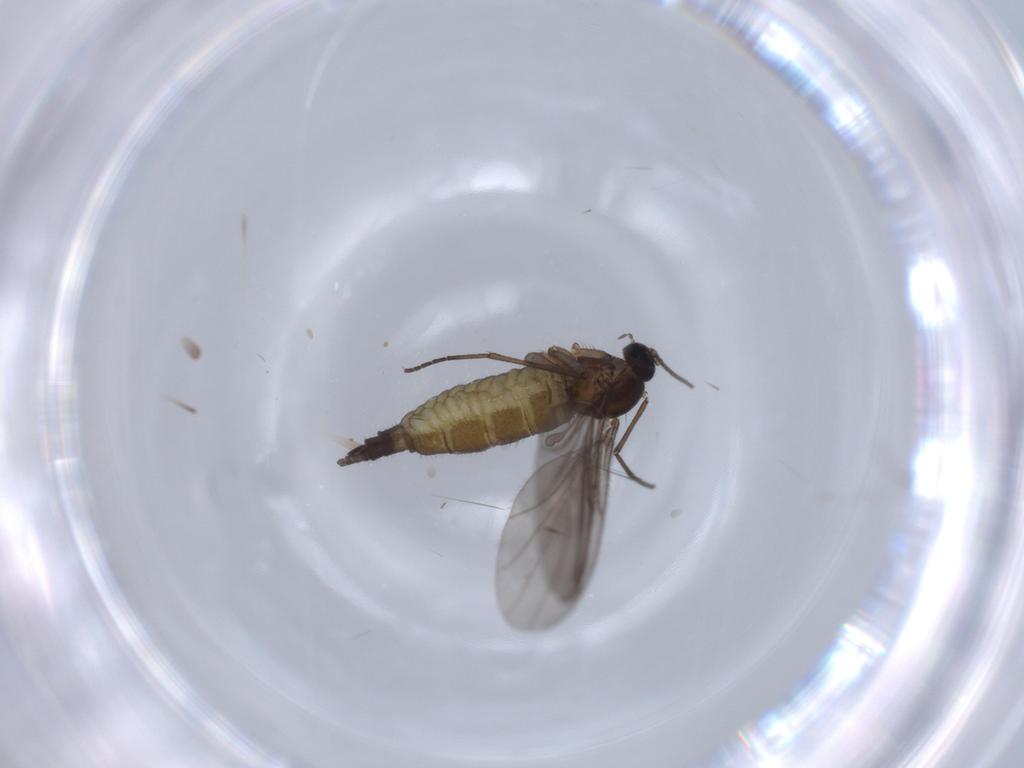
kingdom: Animalia
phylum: Arthropoda
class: Insecta
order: Diptera
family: Sciaridae
